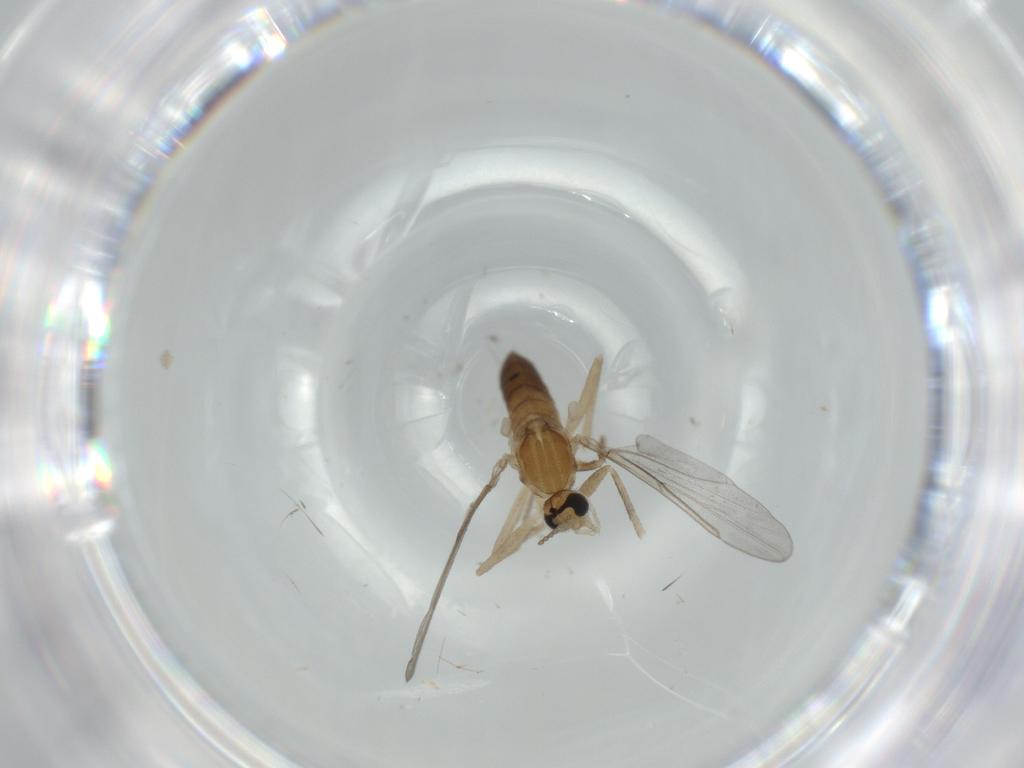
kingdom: Animalia
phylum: Arthropoda
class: Insecta
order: Diptera
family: Cecidomyiidae
